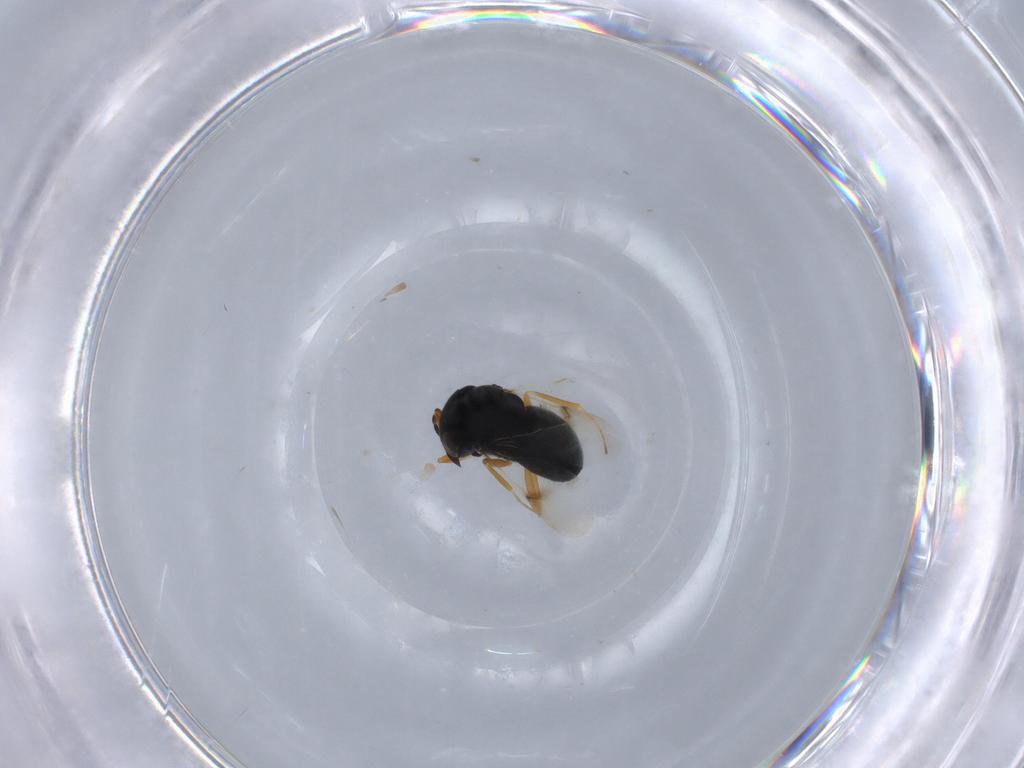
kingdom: Animalia
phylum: Arthropoda
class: Insecta
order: Hymenoptera
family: Scelionidae
